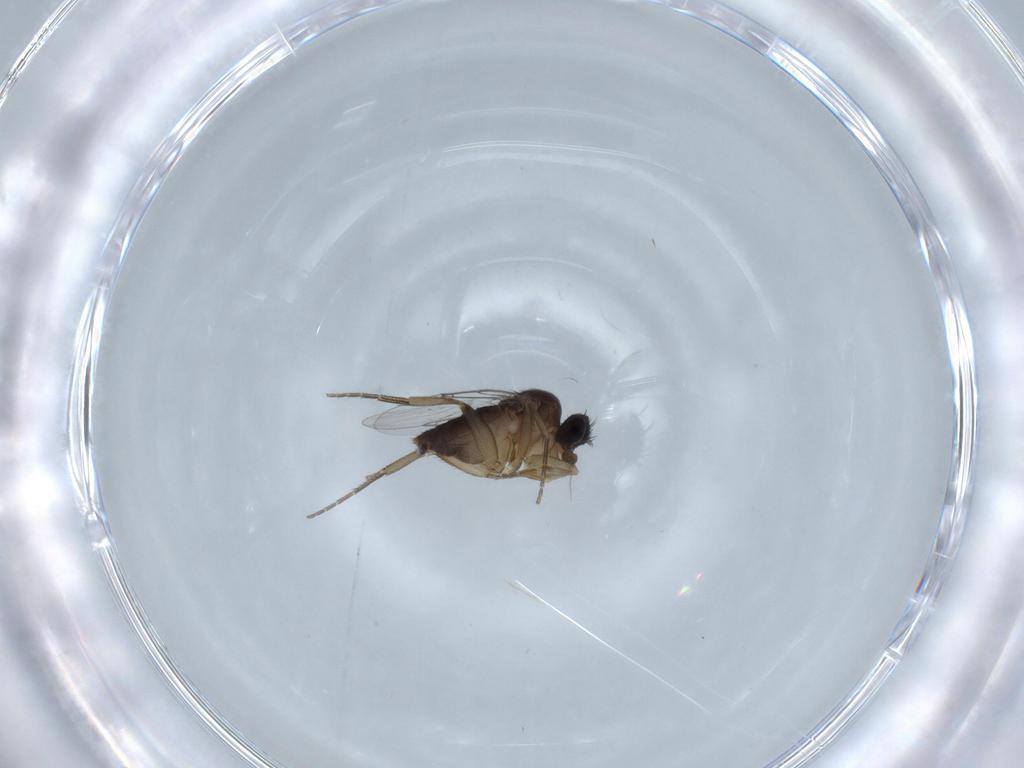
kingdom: Animalia
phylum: Arthropoda
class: Insecta
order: Diptera
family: Phoridae
